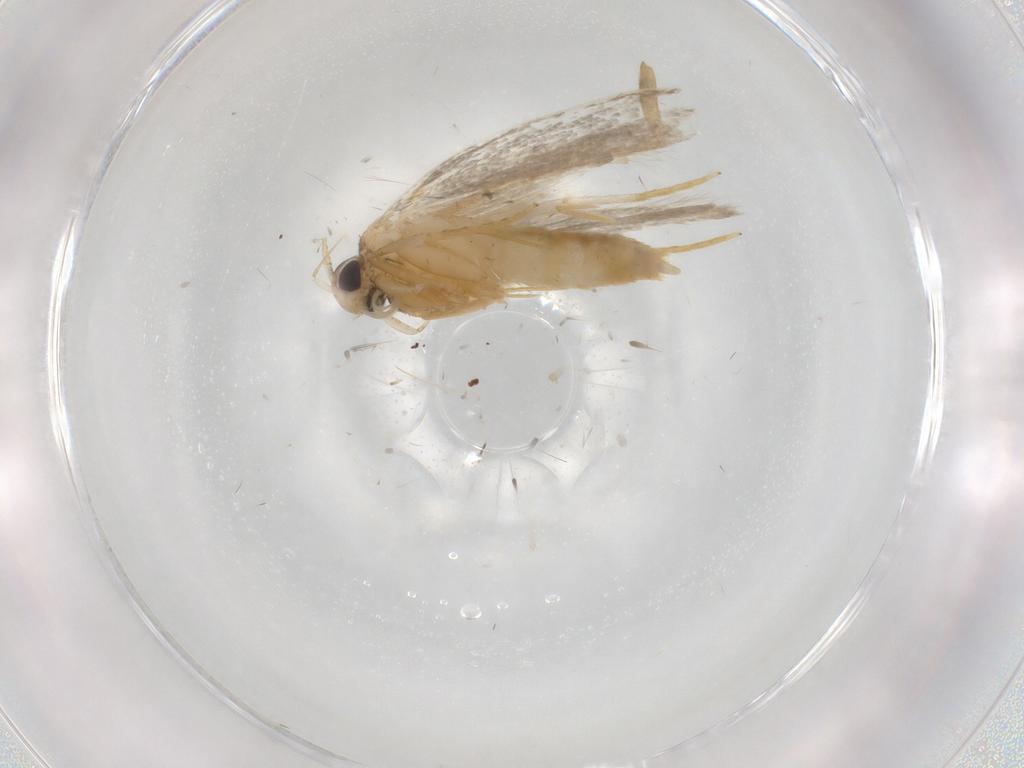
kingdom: Animalia
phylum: Arthropoda
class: Insecta
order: Lepidoptera
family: Autostichidae
